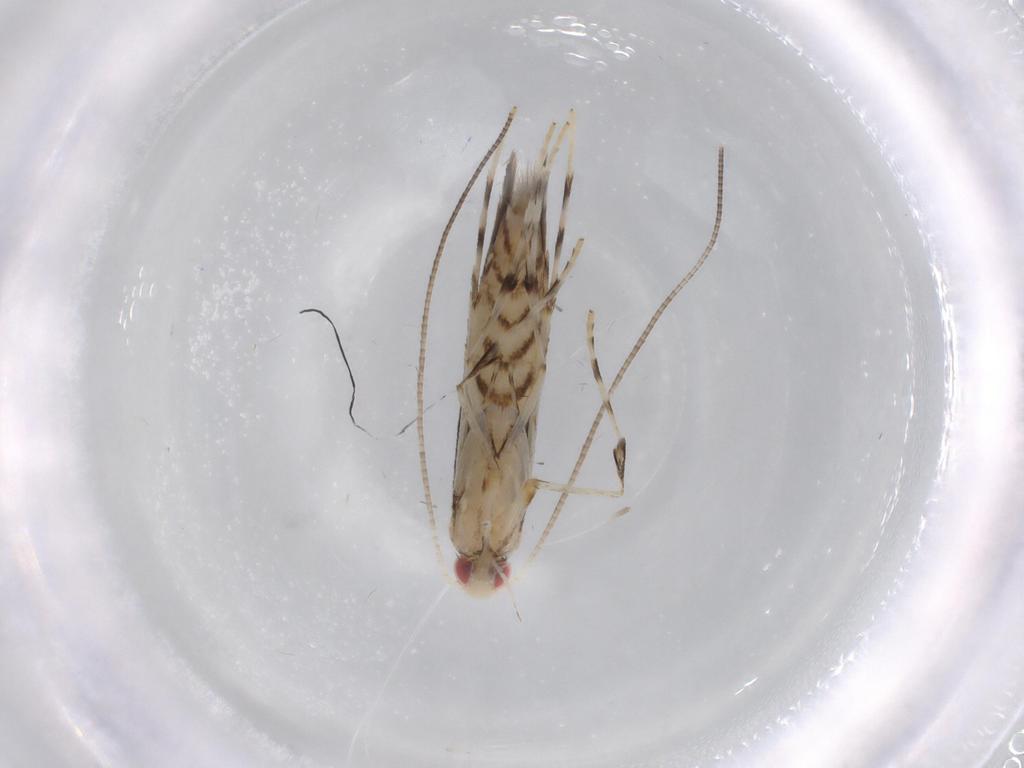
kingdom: Animalia
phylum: Arthropoda
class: Insecta
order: Lepidoptera
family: Gracillariidae
